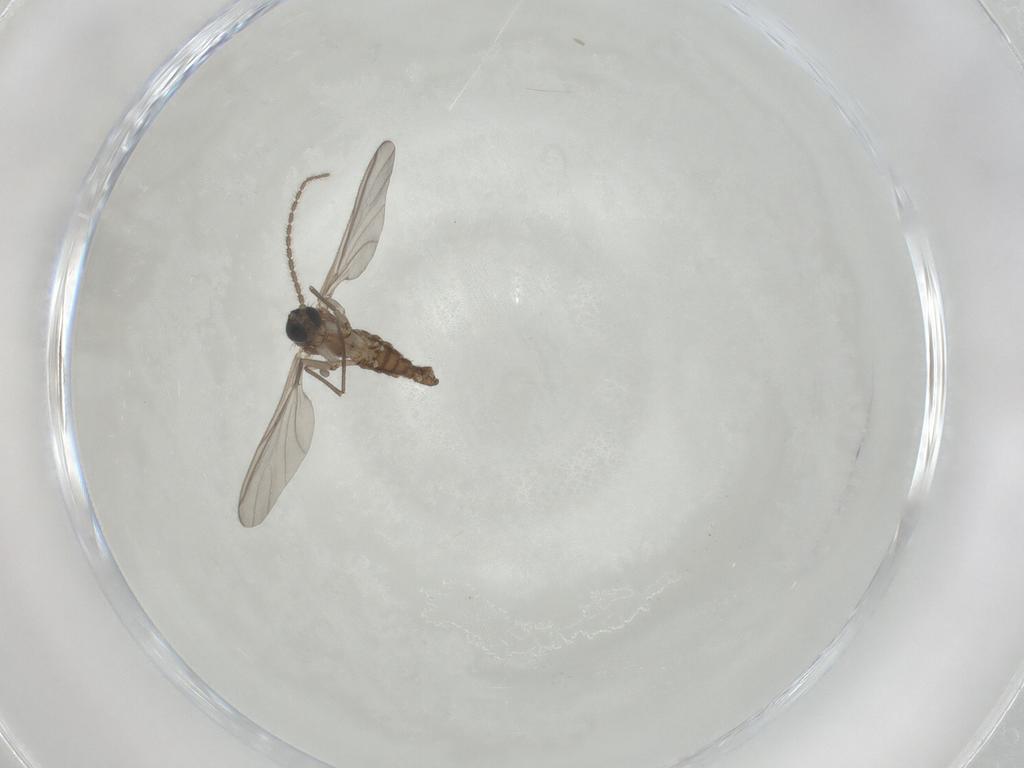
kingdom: Animalia
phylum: Arthropoda
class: Insecta
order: Diptera
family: Sciaridae
